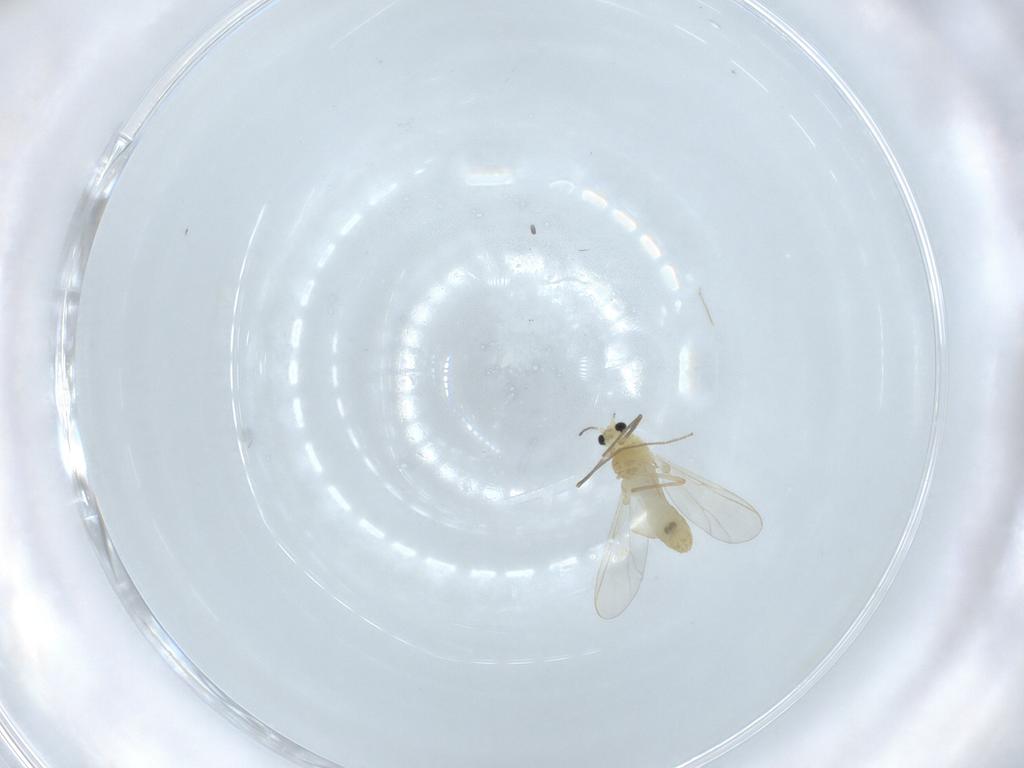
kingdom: Animalia
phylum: Arthropoda
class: Insecta
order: Diptera
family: Chironomidae
